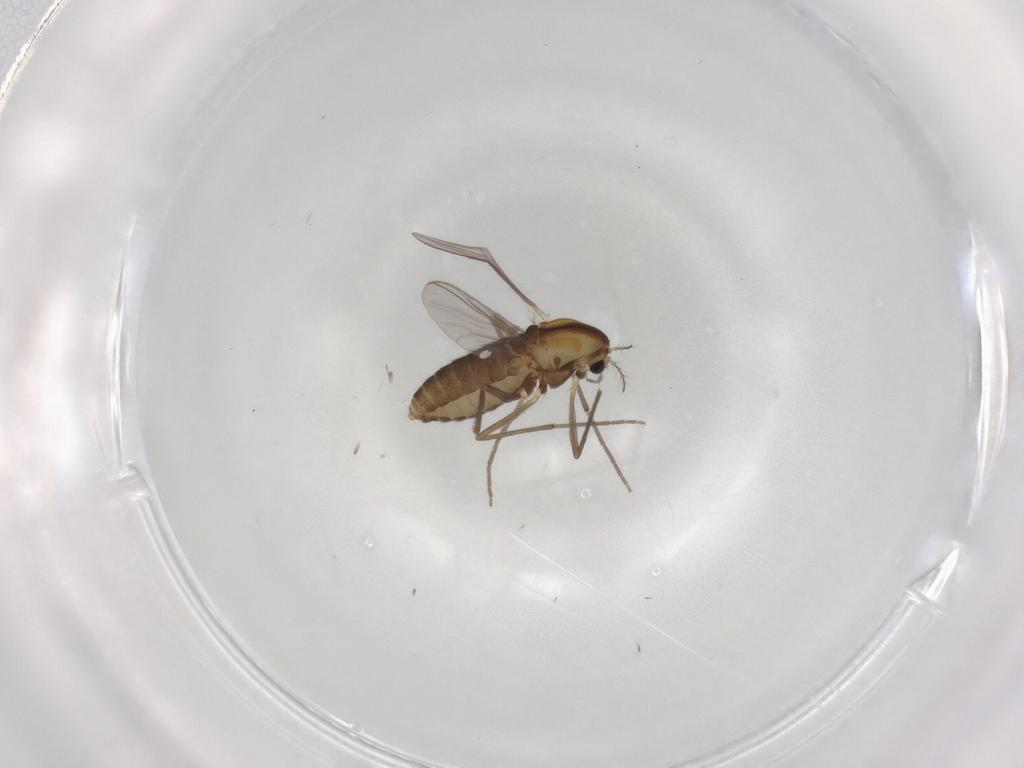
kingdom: Animalia
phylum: Arthropoda
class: Insecta
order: Diptera
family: Chironomidae
